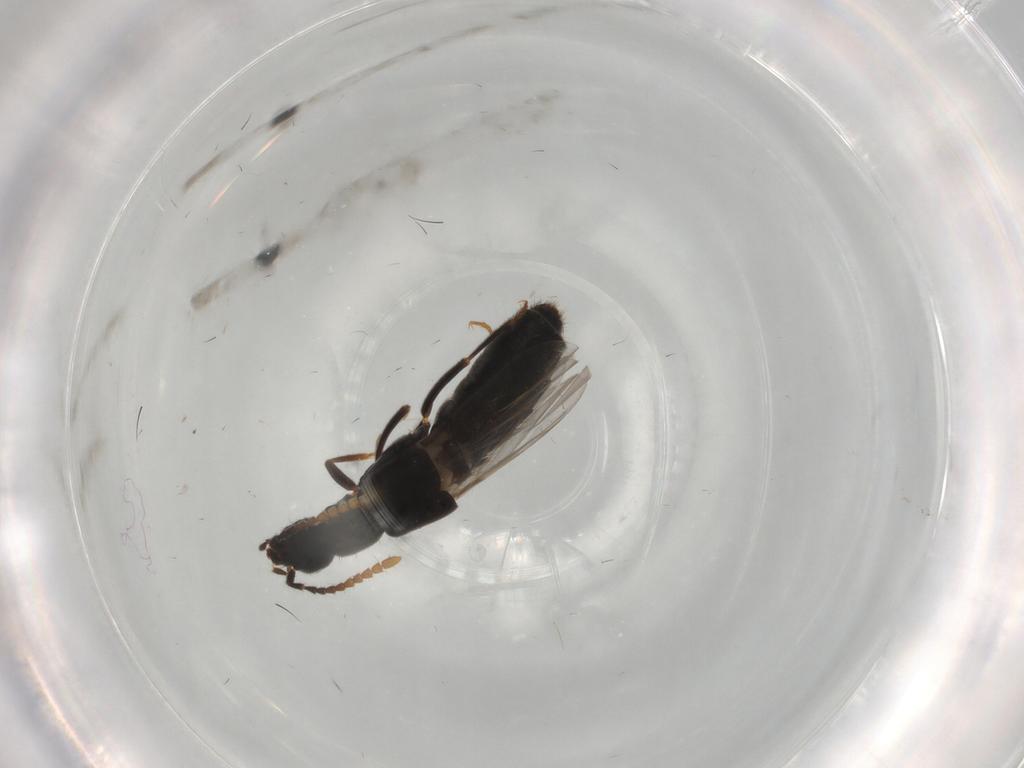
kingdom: Animalia
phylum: Arthropoda
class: Insecta
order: Coleoptera
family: Staphylinidae
